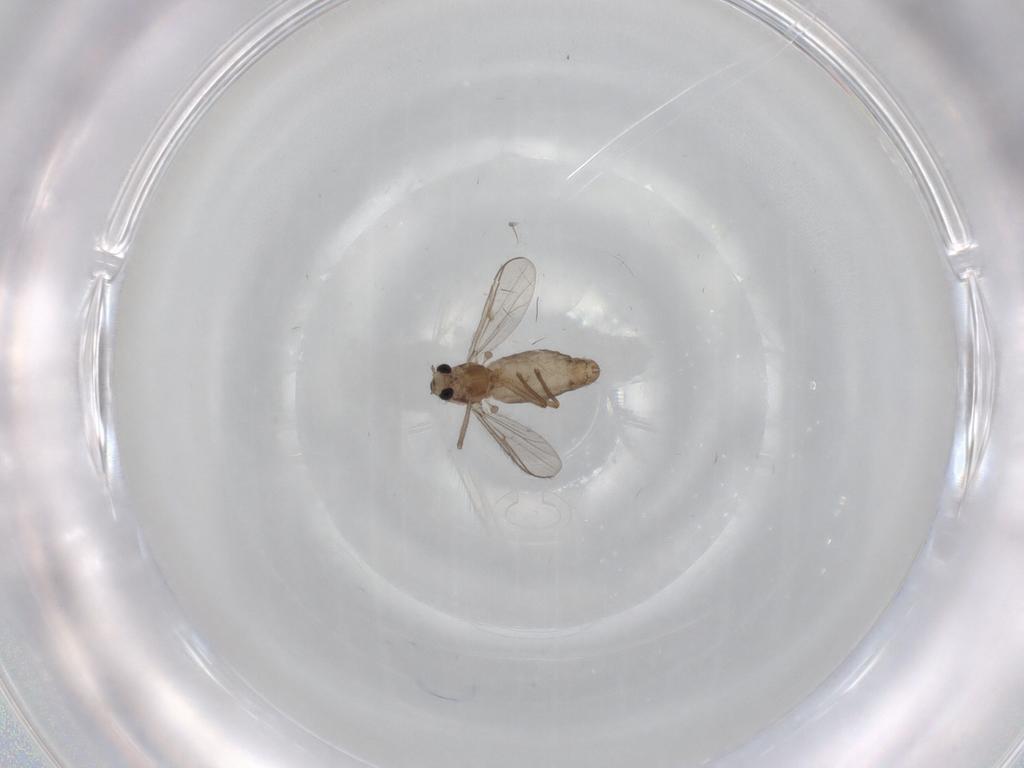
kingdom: Animalia
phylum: Arthropoda
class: Insecta
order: Diptera
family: Chironomidae
